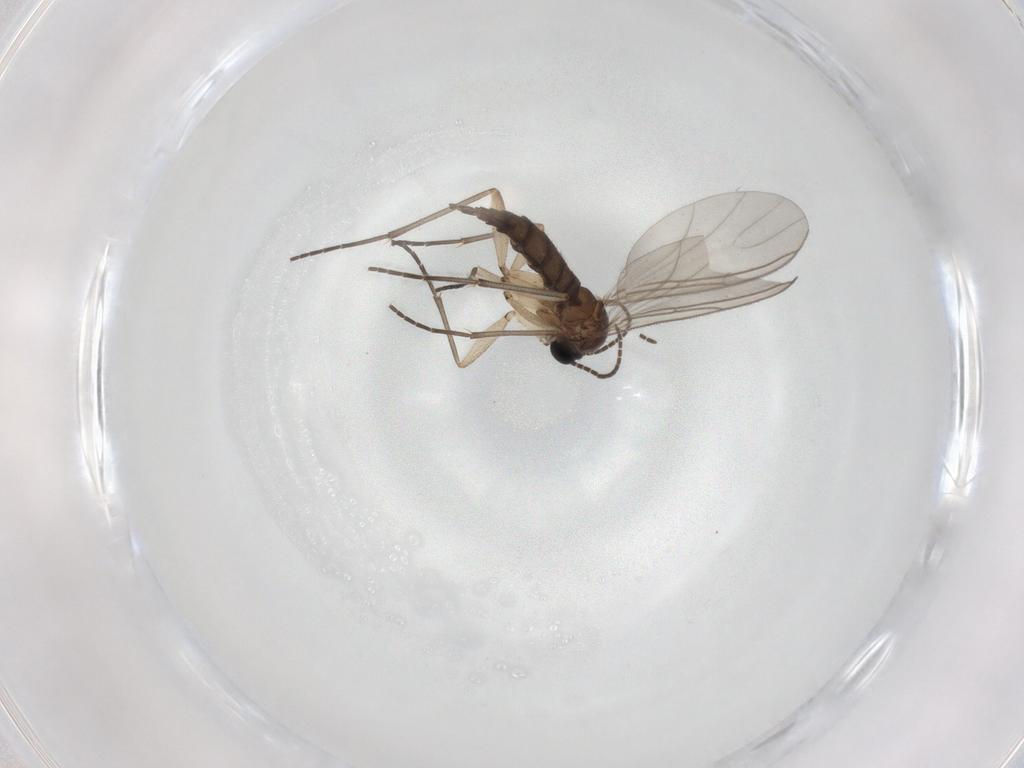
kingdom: Animalia
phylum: Arthropoda
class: Insecta
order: Diptera
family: Sciaridae
